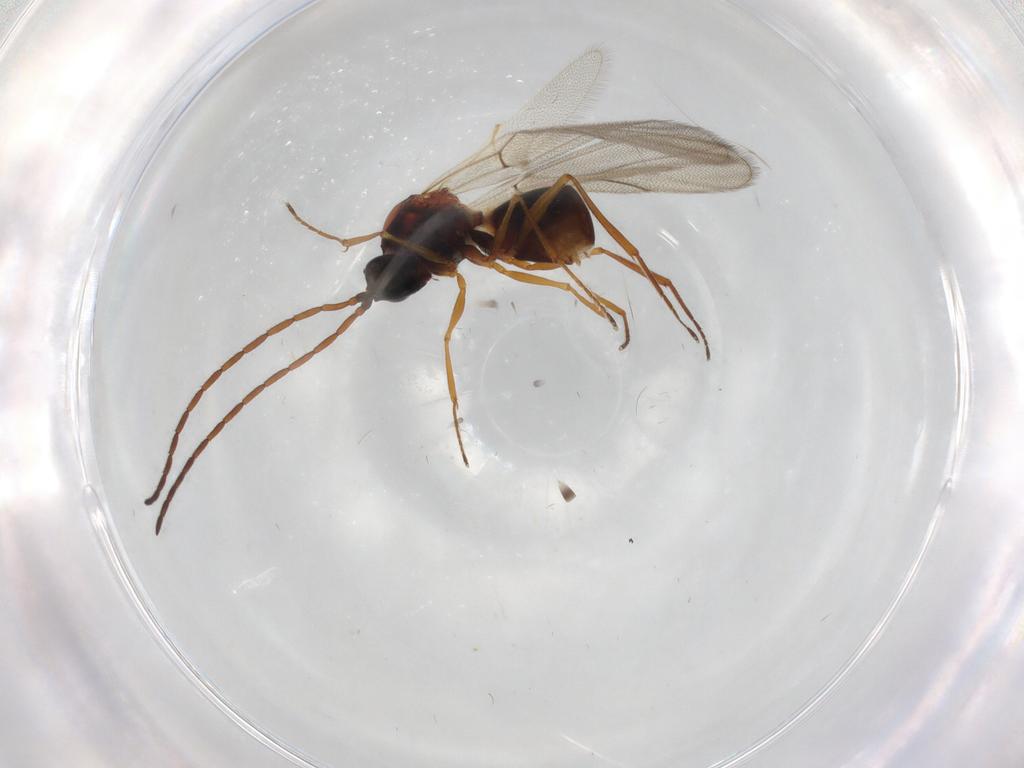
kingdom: Animalia
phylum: Arthropoda
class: Insecta
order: Hymenoptera
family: Figitidae
